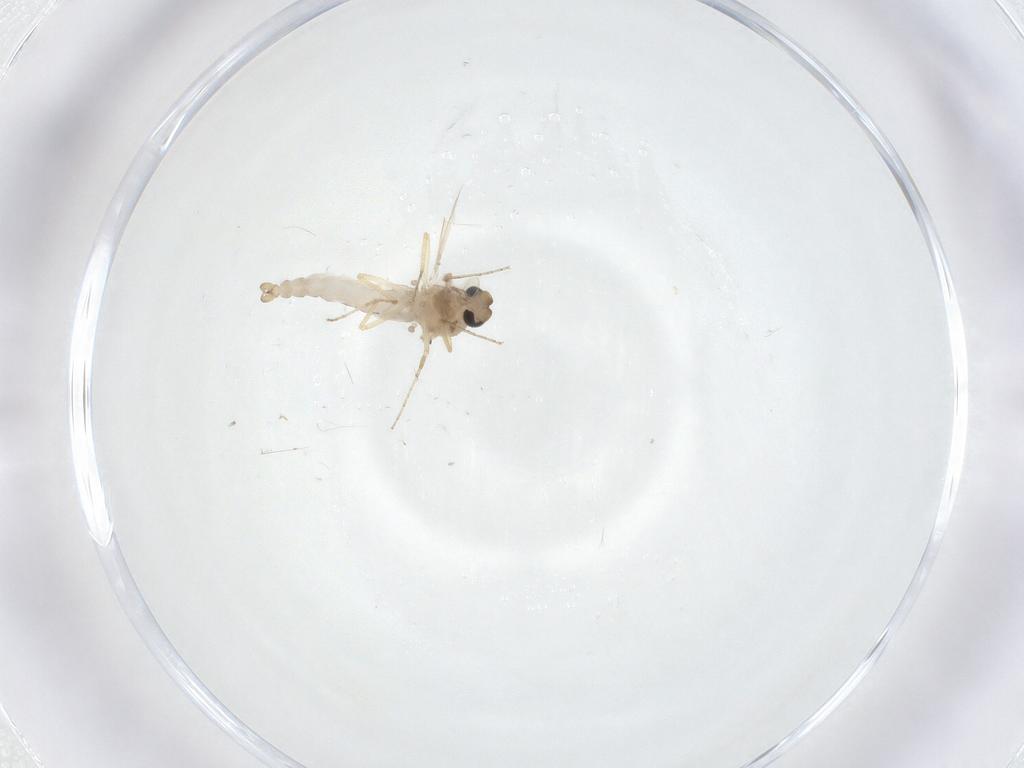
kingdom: Animalia
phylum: Arthropoda
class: Insecta
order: Diptera
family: Ceratopogonidae
